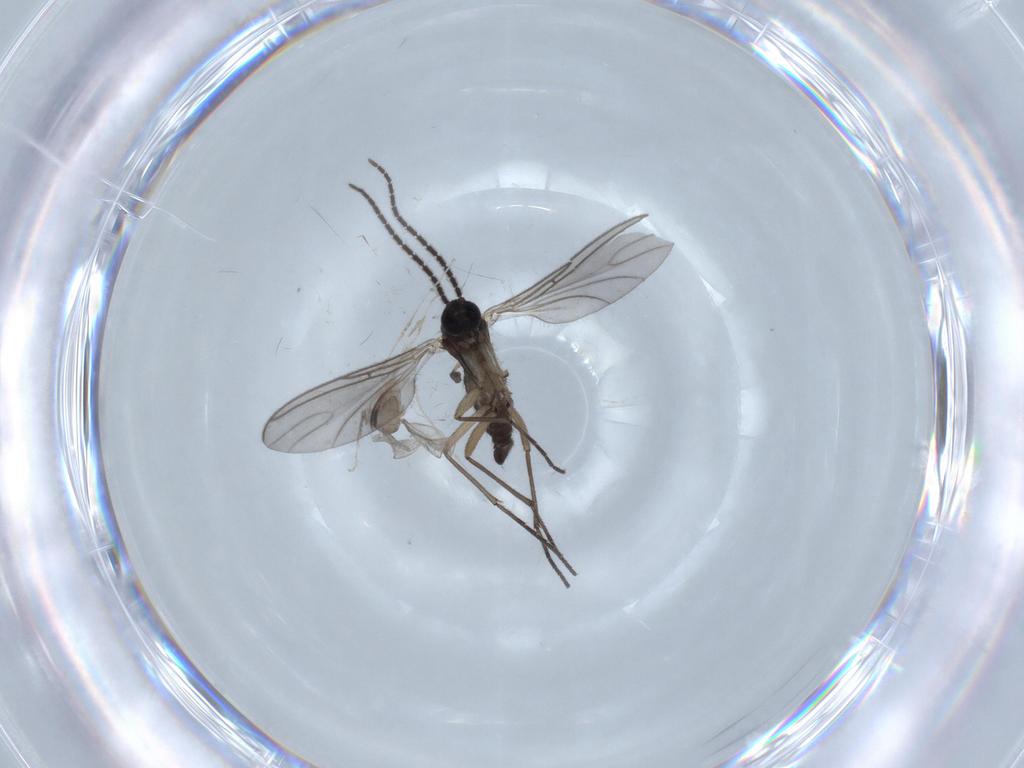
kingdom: Animalia
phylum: Arthropoda
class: Insecta
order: Diptera
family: Cecidomyiidae
